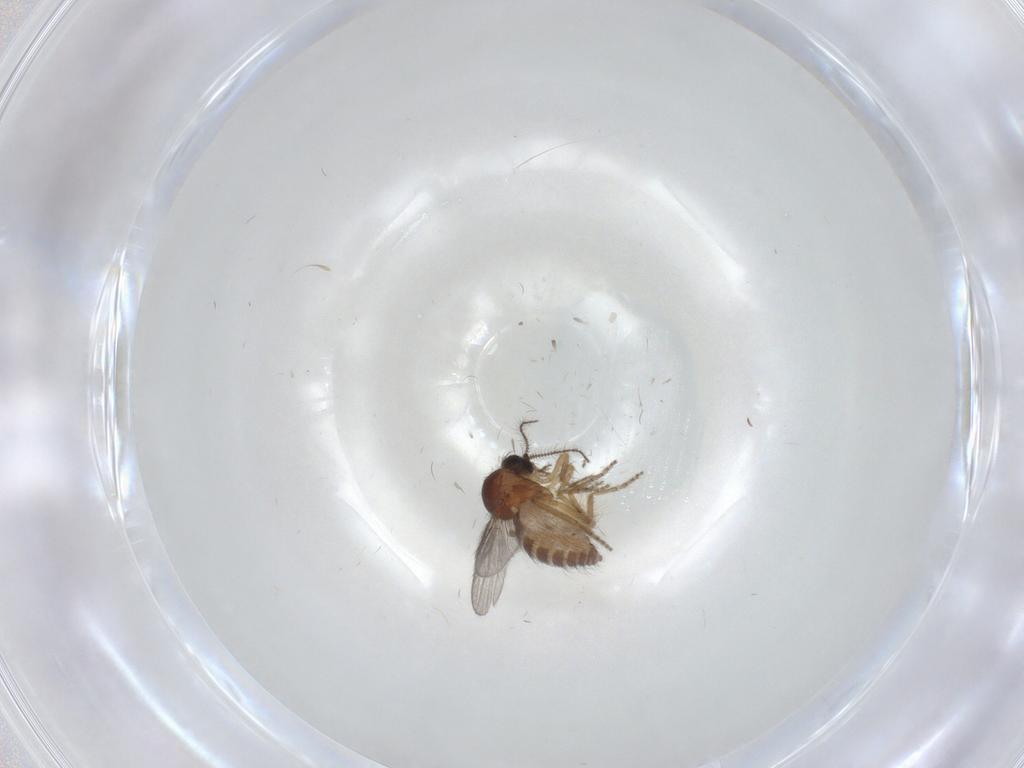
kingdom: Animalia
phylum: Arthropoda
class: Insecta
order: Diptera
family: Ceratopogonidae
